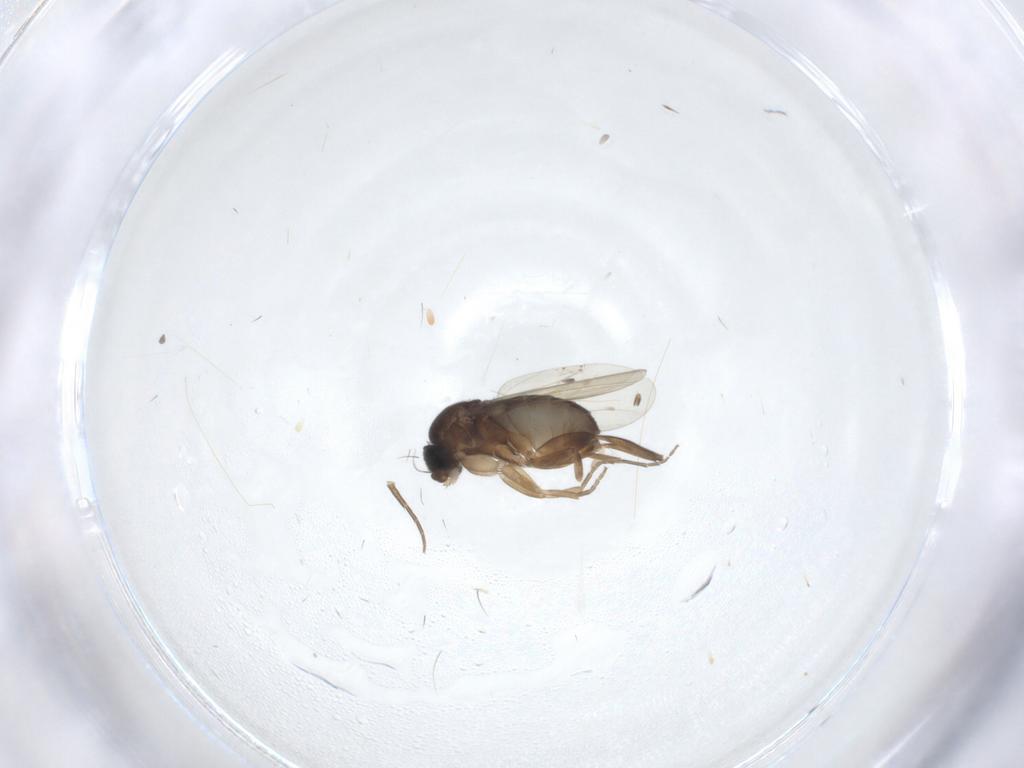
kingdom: Animalia
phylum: Arthropoda
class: Insecta
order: Diptera
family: Phoridae
